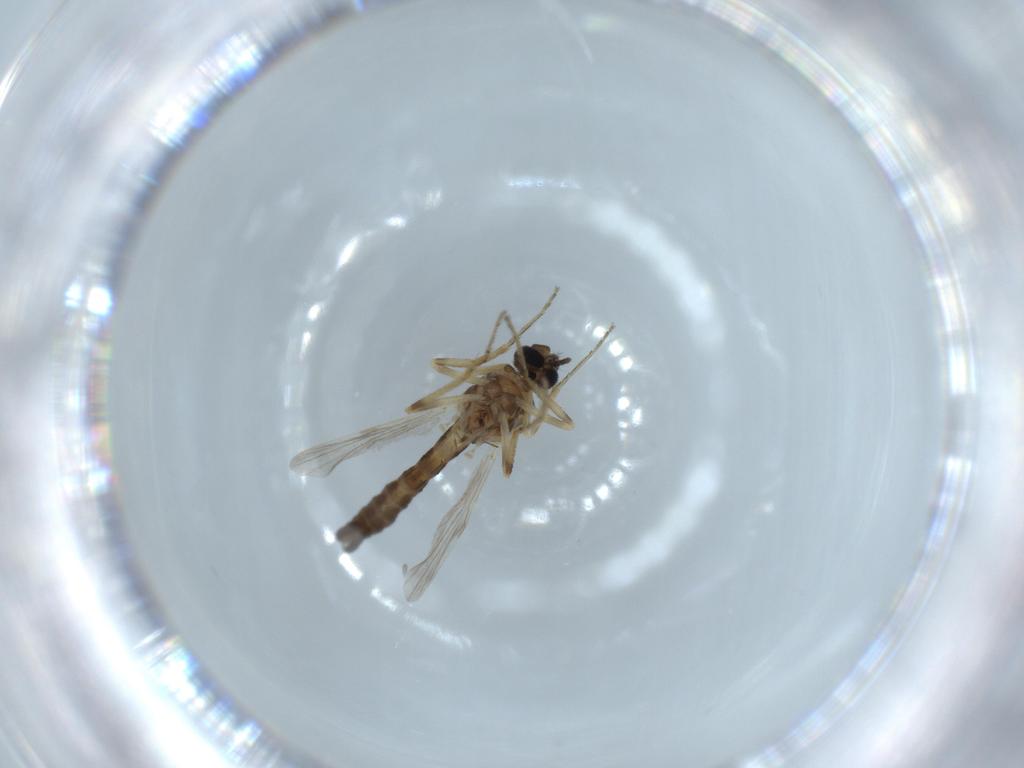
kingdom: Animalia
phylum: Arthropoda
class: Insecta
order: Diptera
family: Ceratopogonidae
